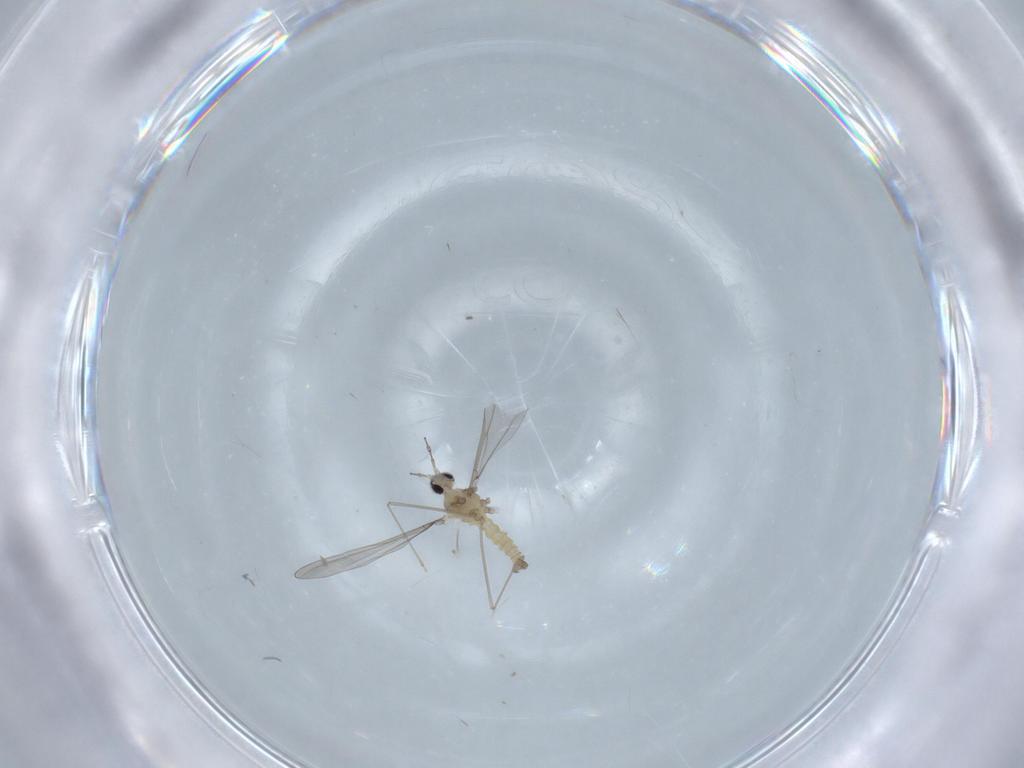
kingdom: Animalia
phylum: Arthropoda
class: Insecta
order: Diptera
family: Cecidomyiidae
